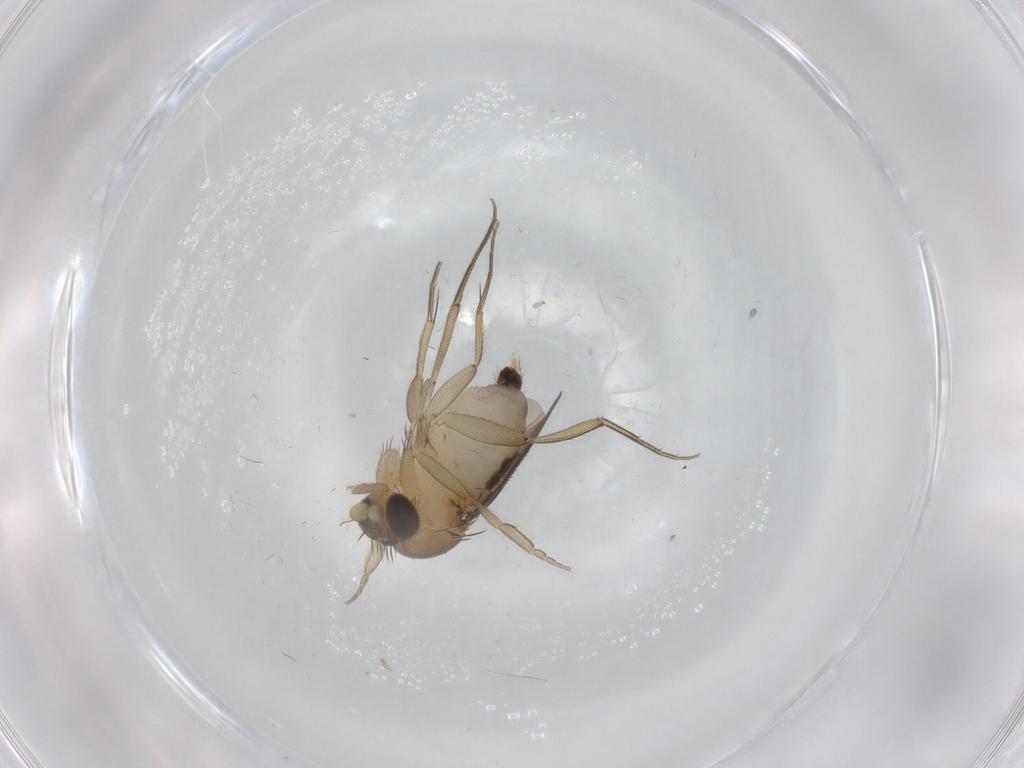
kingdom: Animalia
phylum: Arthropoda
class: Insecta
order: Diptera
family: Phoridae
